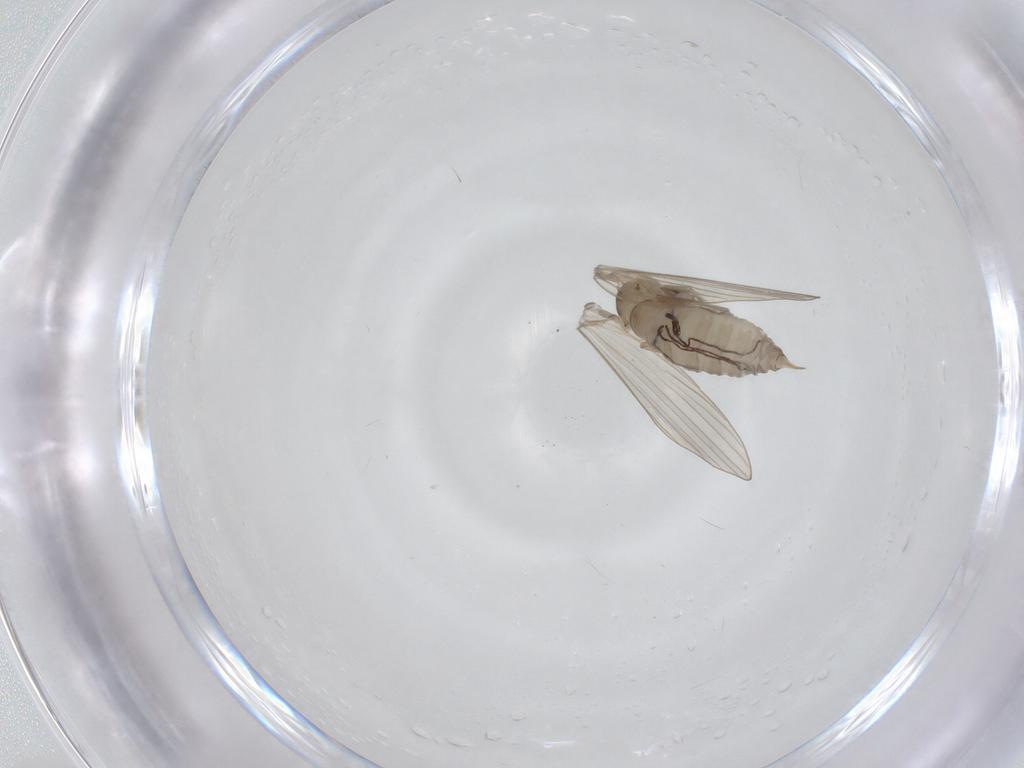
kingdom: Animalia
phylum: Arthropoda
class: Insecta
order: Diptera
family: Psychodidae
